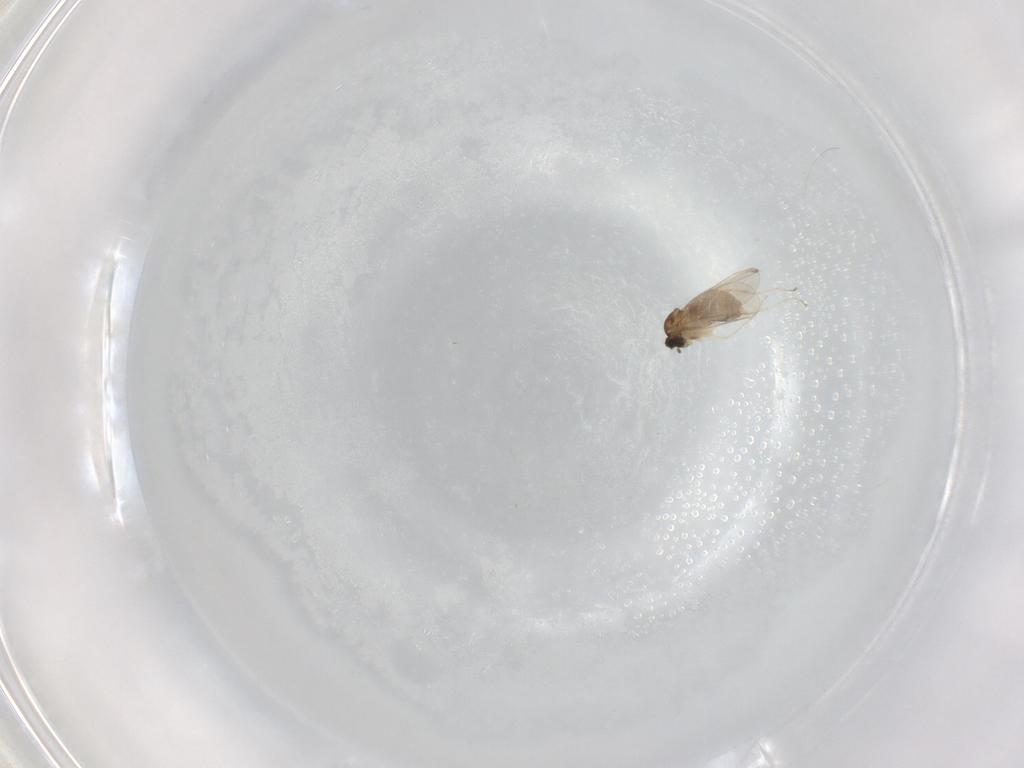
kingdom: Animalia
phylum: Arthropoda
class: Insecta
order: Diptera
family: Cecidomyiidae
